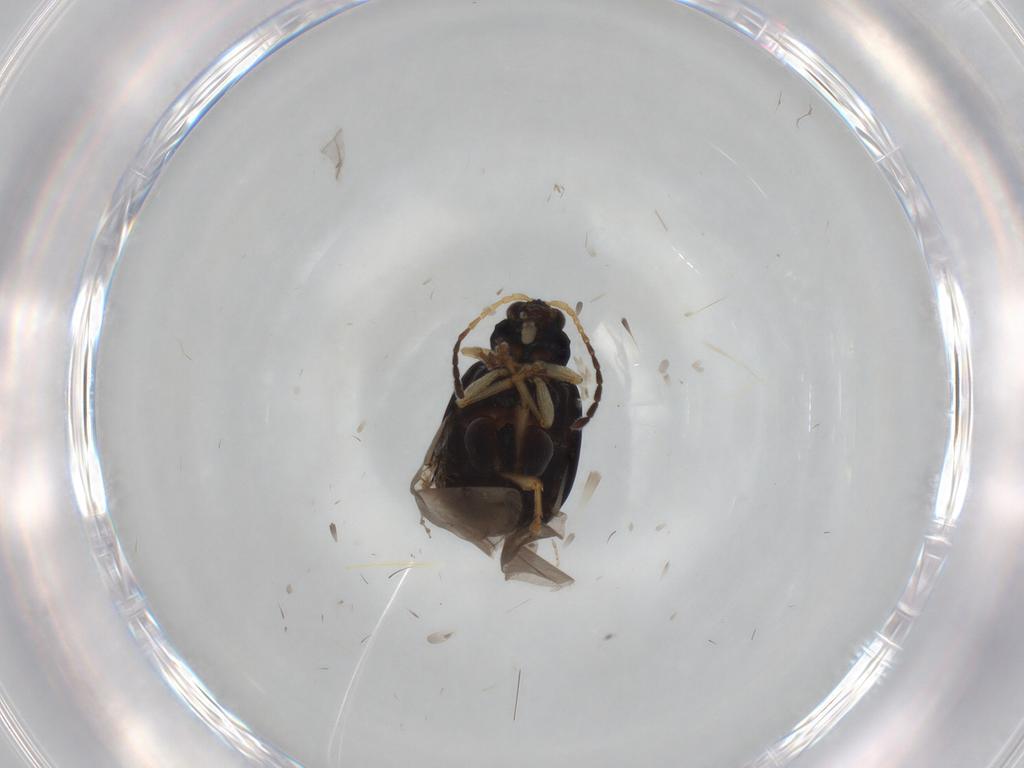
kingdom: Animalia
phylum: Arthropoda
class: Insecta
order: Coleoptera
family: Chrysomelidae
